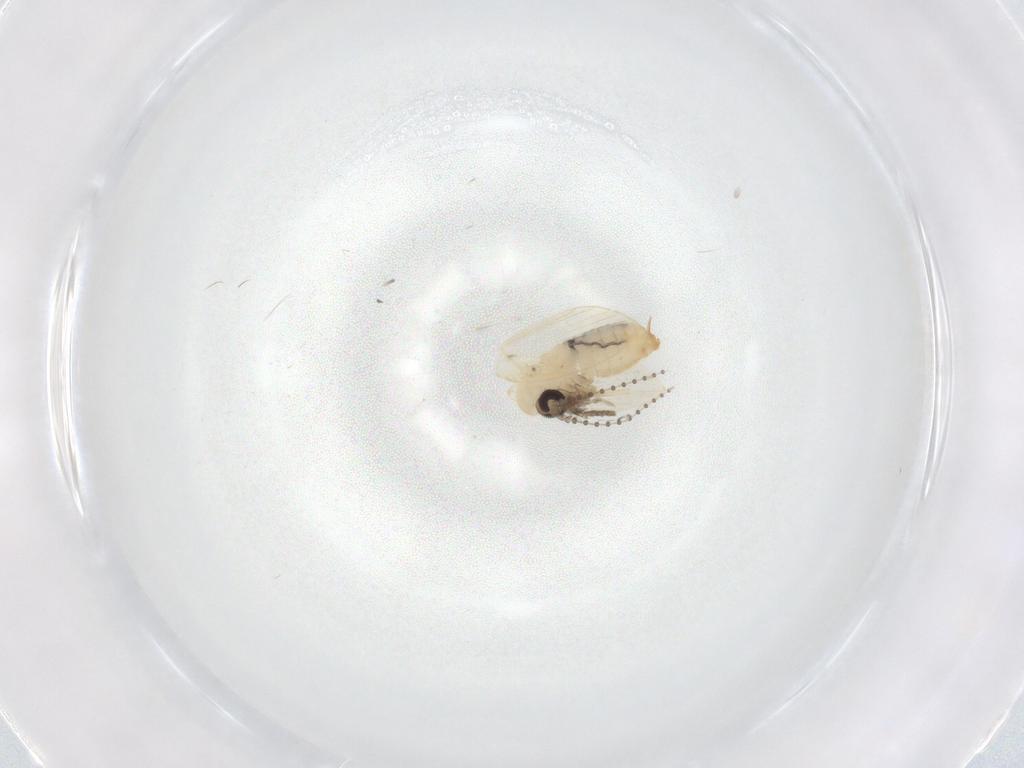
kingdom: Animalia
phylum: Arthropoda
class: Insecta
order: Diptera
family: Psychodidae
